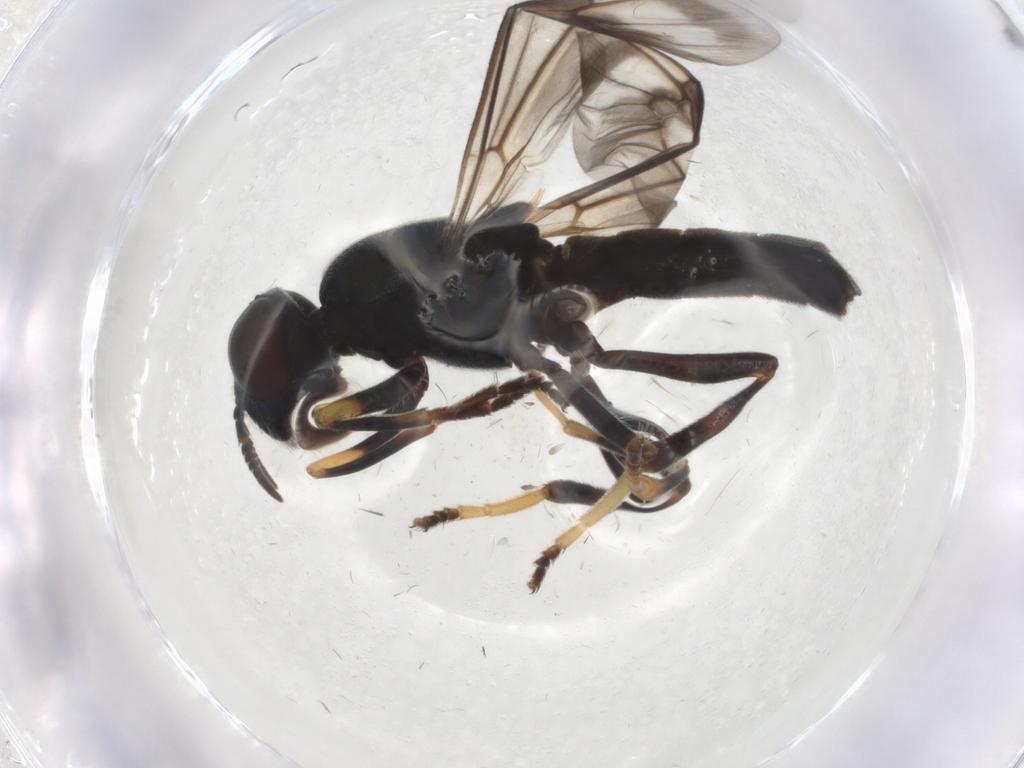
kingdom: Animalia
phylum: Arthropoda
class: Insecta
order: Diptera
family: Stratiomyidae
